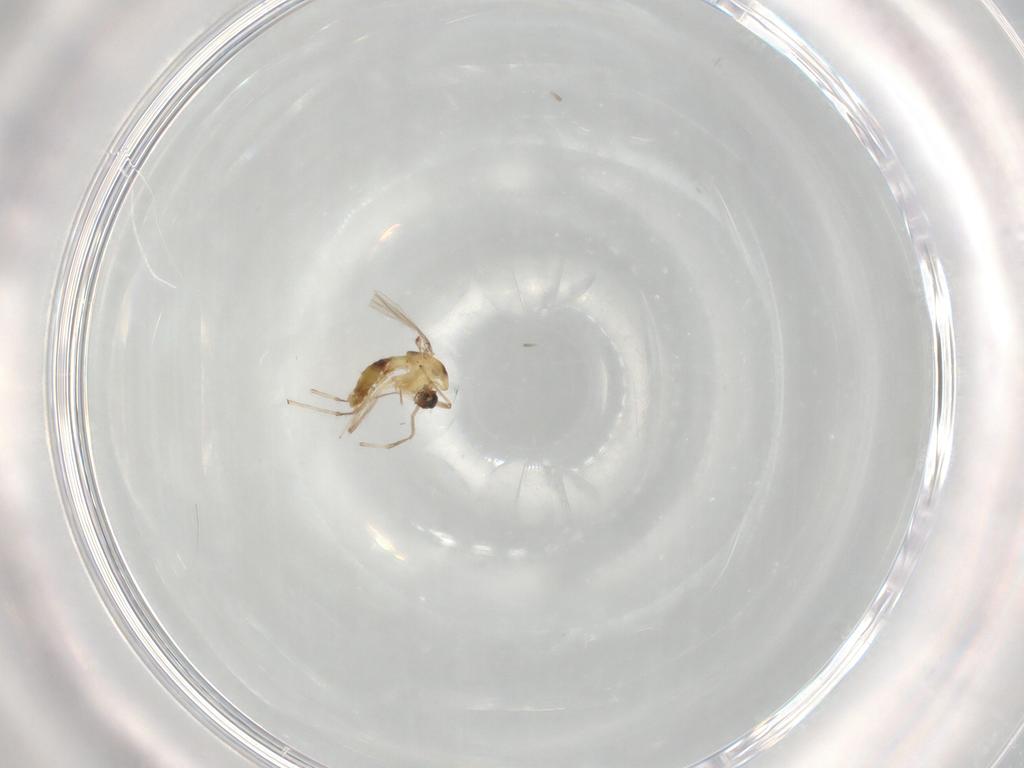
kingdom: Animalia
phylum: Arthropoda
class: Insecta
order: Diptera
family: Chironomidae
